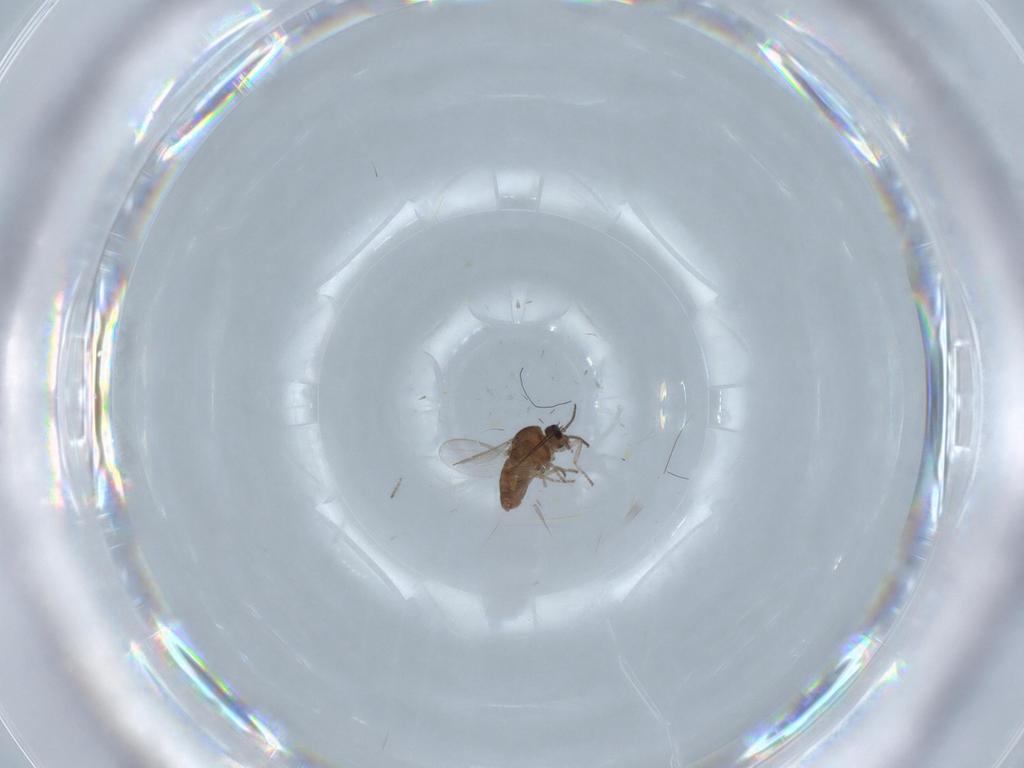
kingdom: Animalia
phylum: Arthropoda
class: Insecta
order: Diptera
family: Ceratopogonidae
